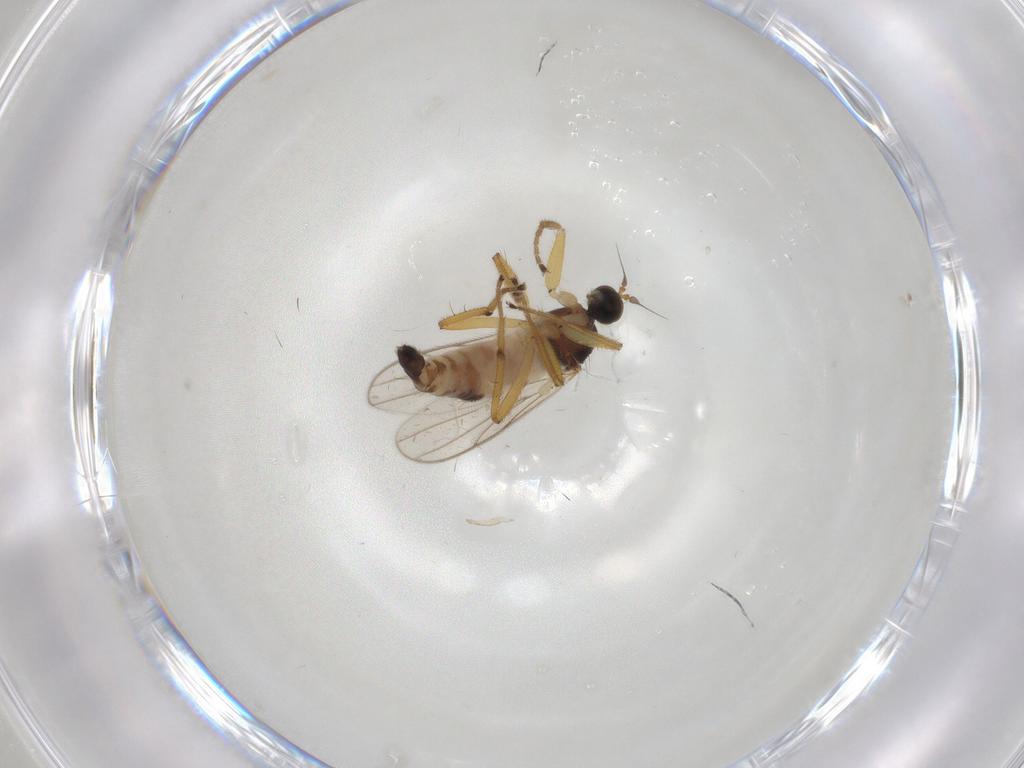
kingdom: Animalia
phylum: Arthropoda
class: Insecta
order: Diptera
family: Hybotidae
